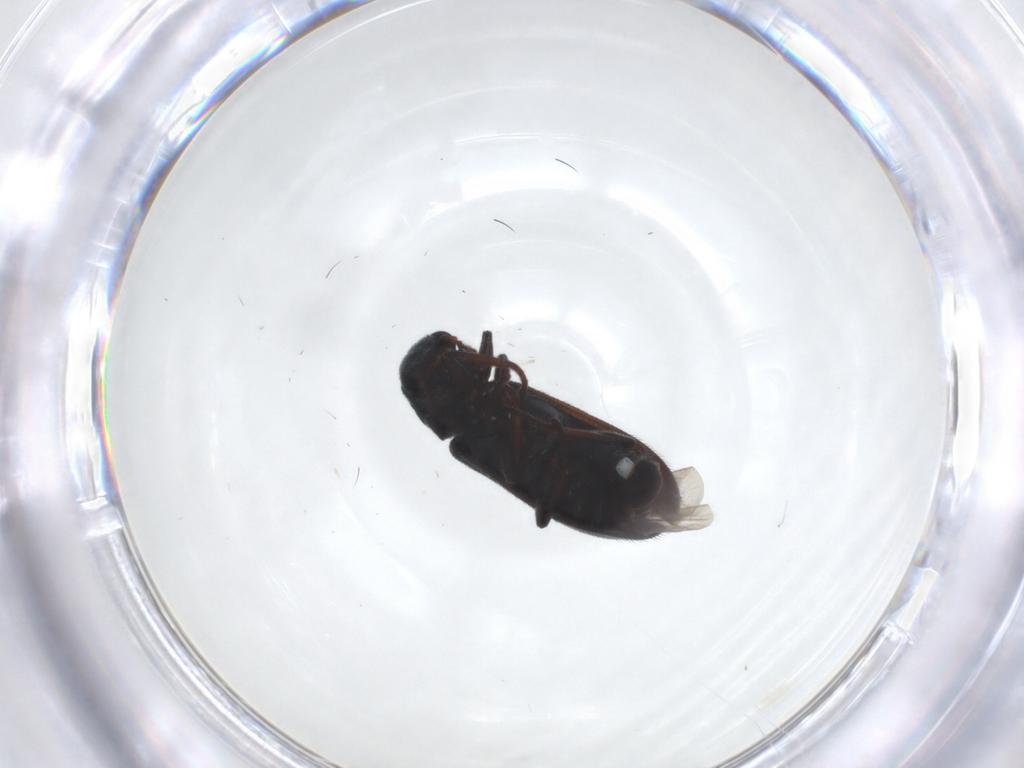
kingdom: Animalia
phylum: Arthropoda
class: Insecta
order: Coleoptera
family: Melyridae
